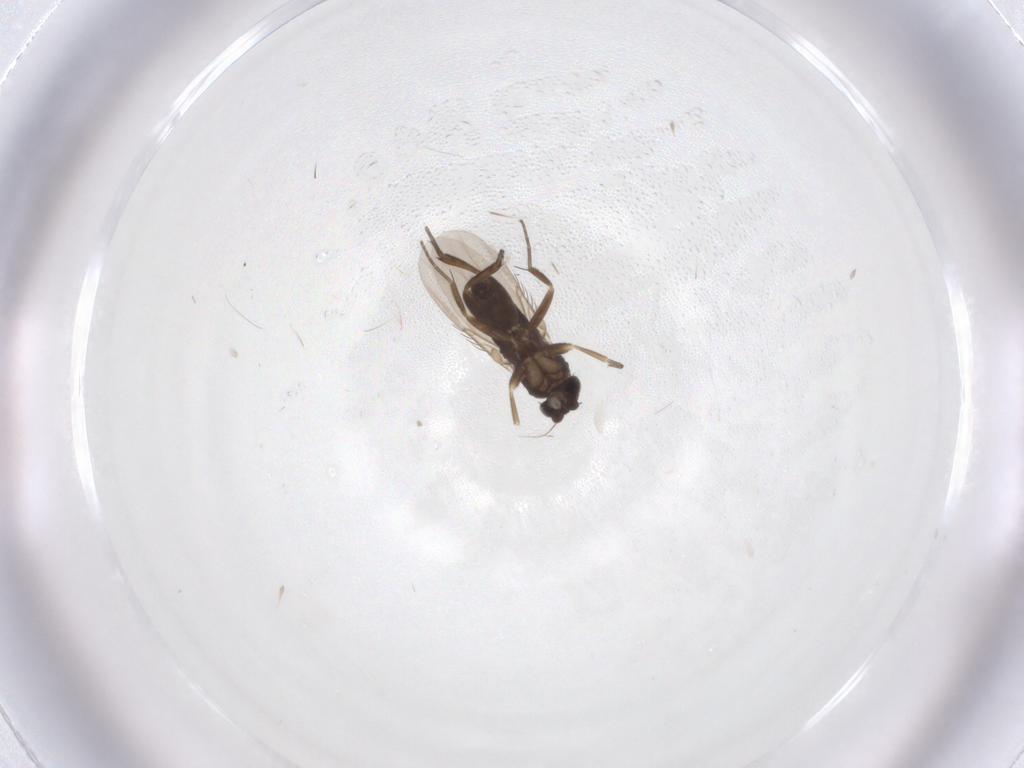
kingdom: Animalia
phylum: Arthropoda
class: Insecta
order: Diptera
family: Phoridae
